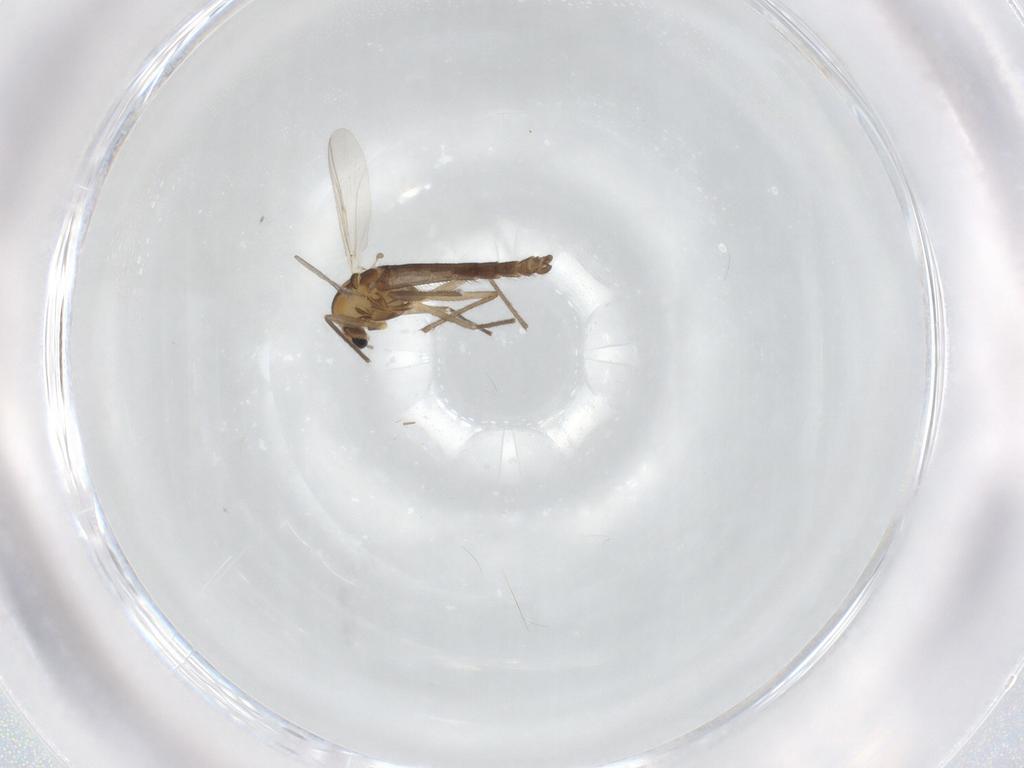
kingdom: Animalia
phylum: Arthropoda
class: Insecta
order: Diptera
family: Chironomidae
